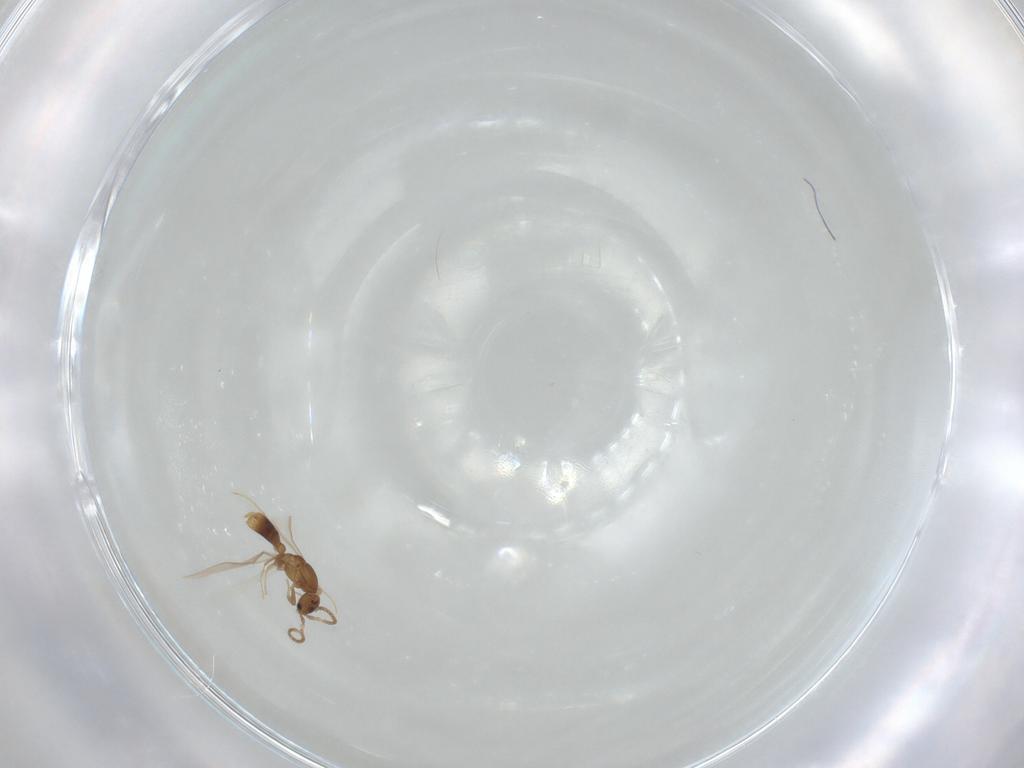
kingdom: Animalia
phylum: Arthropoda
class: Insecta
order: Hymenoptera
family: Formicidae
